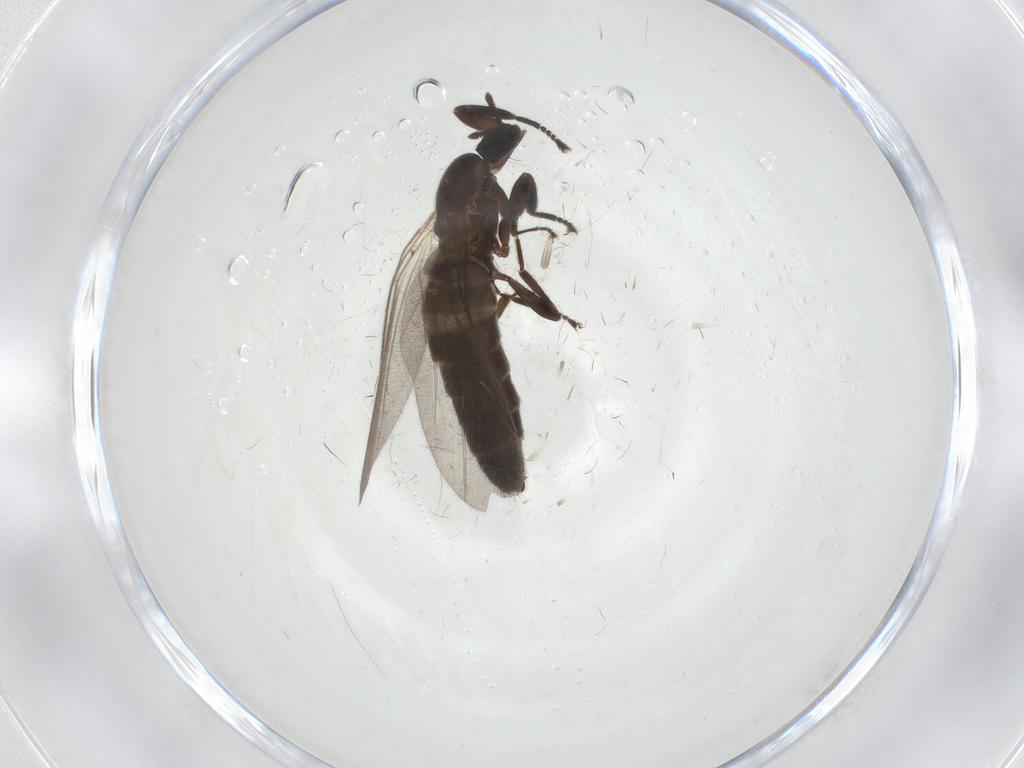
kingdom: Animalia
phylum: Arthropoda
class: Insecta
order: Diptera
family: Scatopsidae
